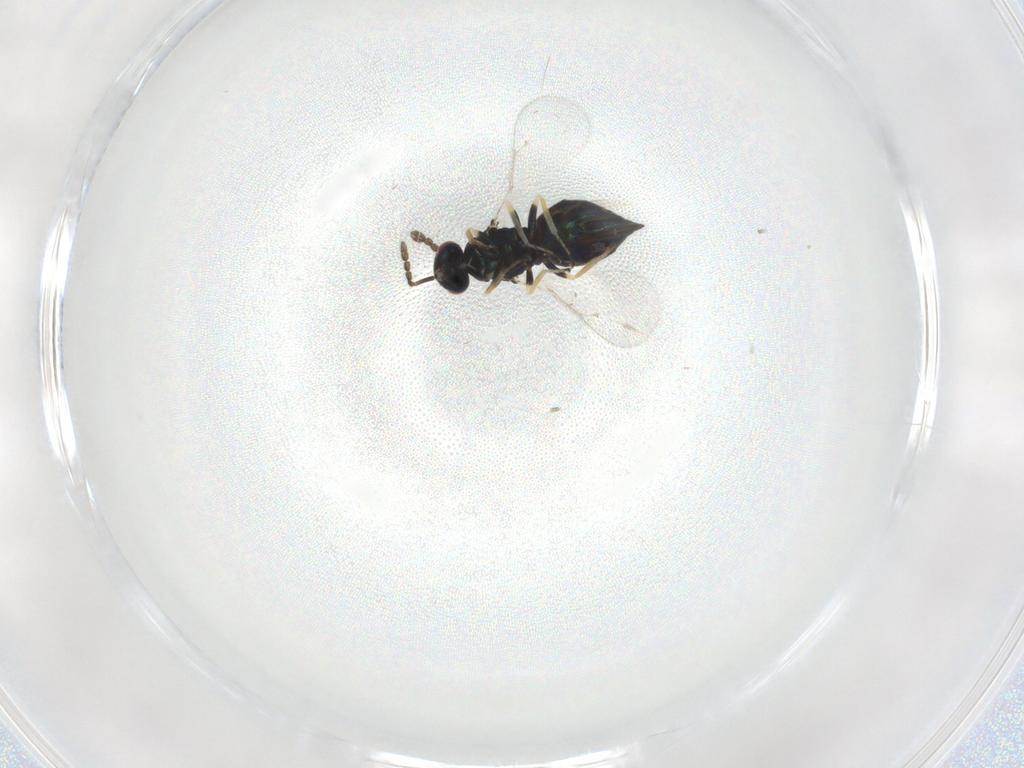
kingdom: Animalia
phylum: Arthropoda
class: Insecta
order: Hymenoptera
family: Eulophidae
